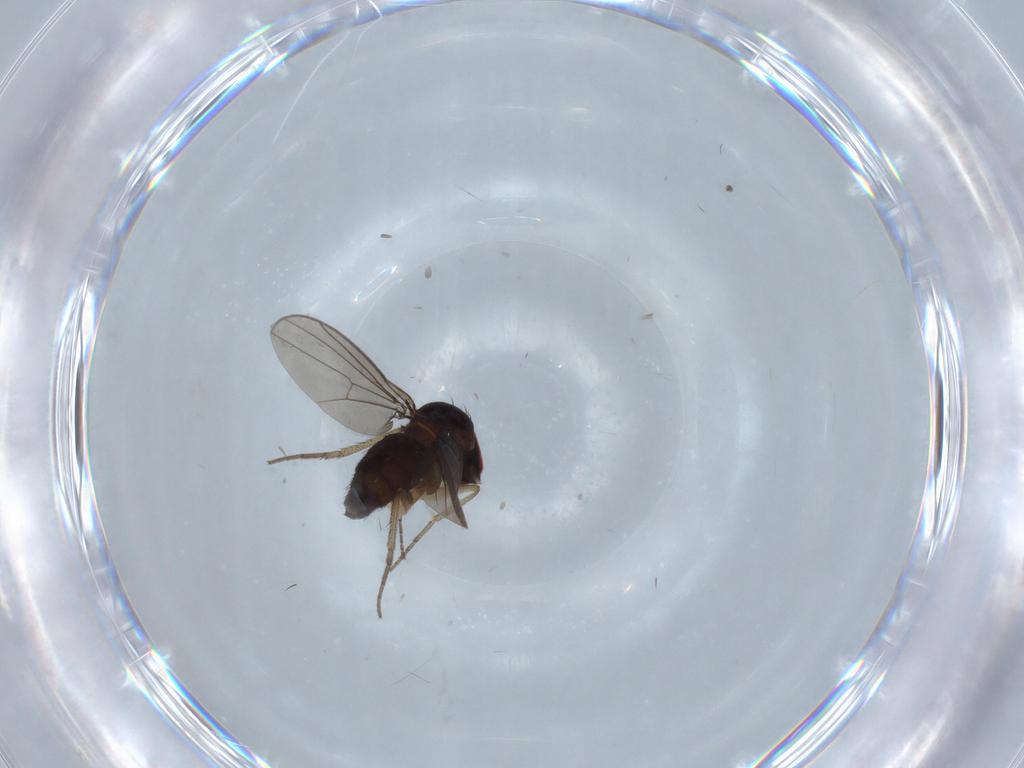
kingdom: Animalia
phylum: Arthropoda
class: Insecta
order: Diptera
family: Dolichopodidae
